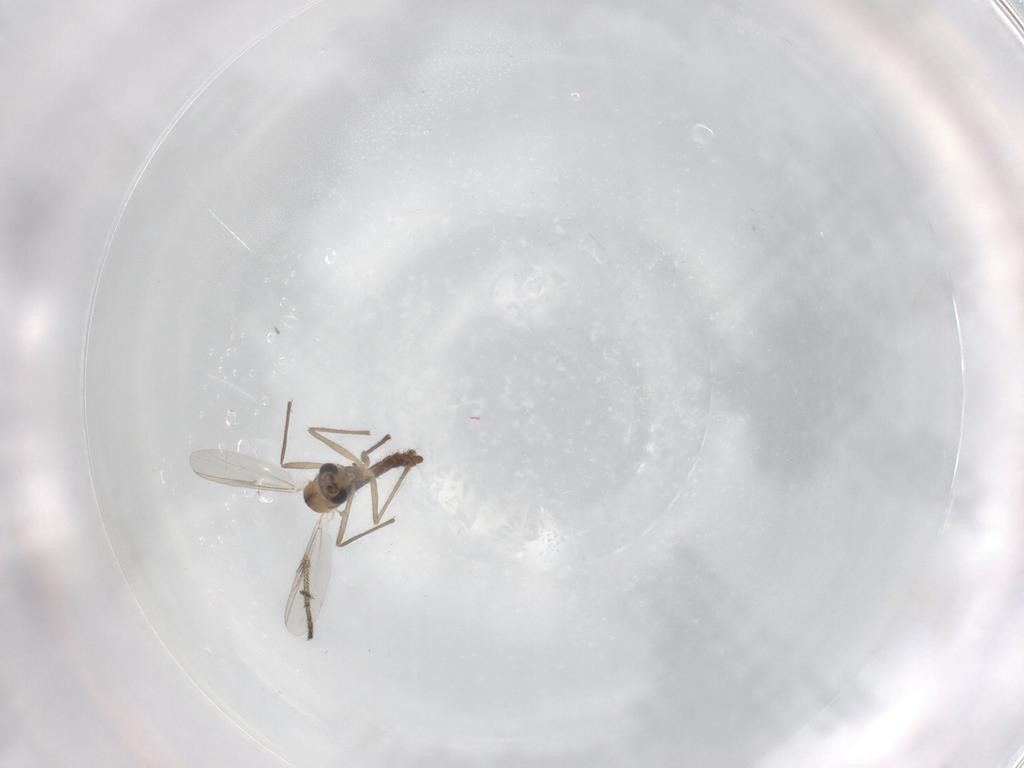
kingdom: Animalia
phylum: Arthropoda
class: Insecta
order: Diptera
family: Chironomidae
